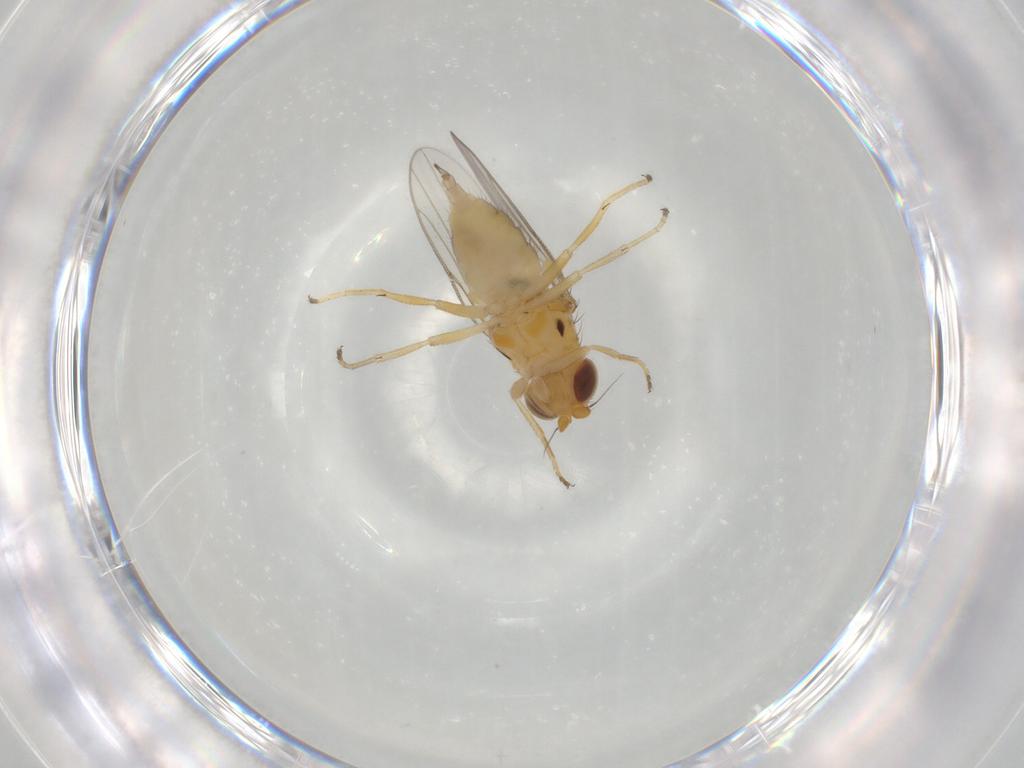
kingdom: Animalia
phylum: Arthropoda
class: Insecta
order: Diptera
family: Chloropidae
